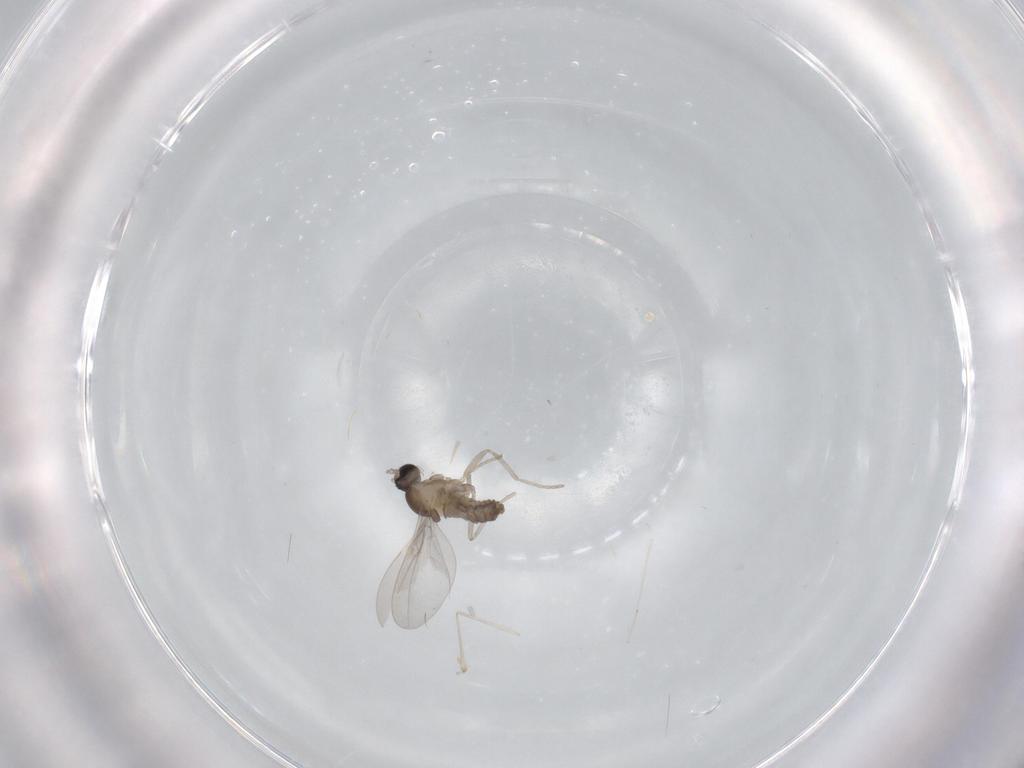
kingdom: Animalia
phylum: Arthropoda
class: Insecta
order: Diptera
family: Cecidomyiidae
